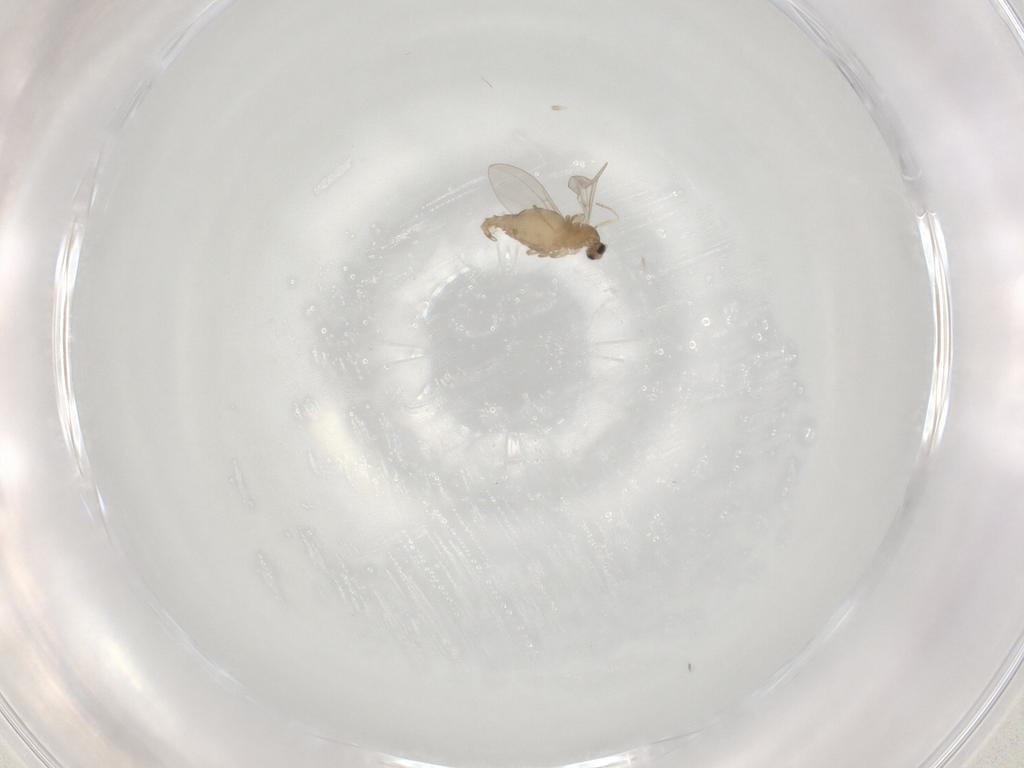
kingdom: Animalia
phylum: Arthropoda
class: Insecta
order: Diptera
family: Cecidomyiidae
